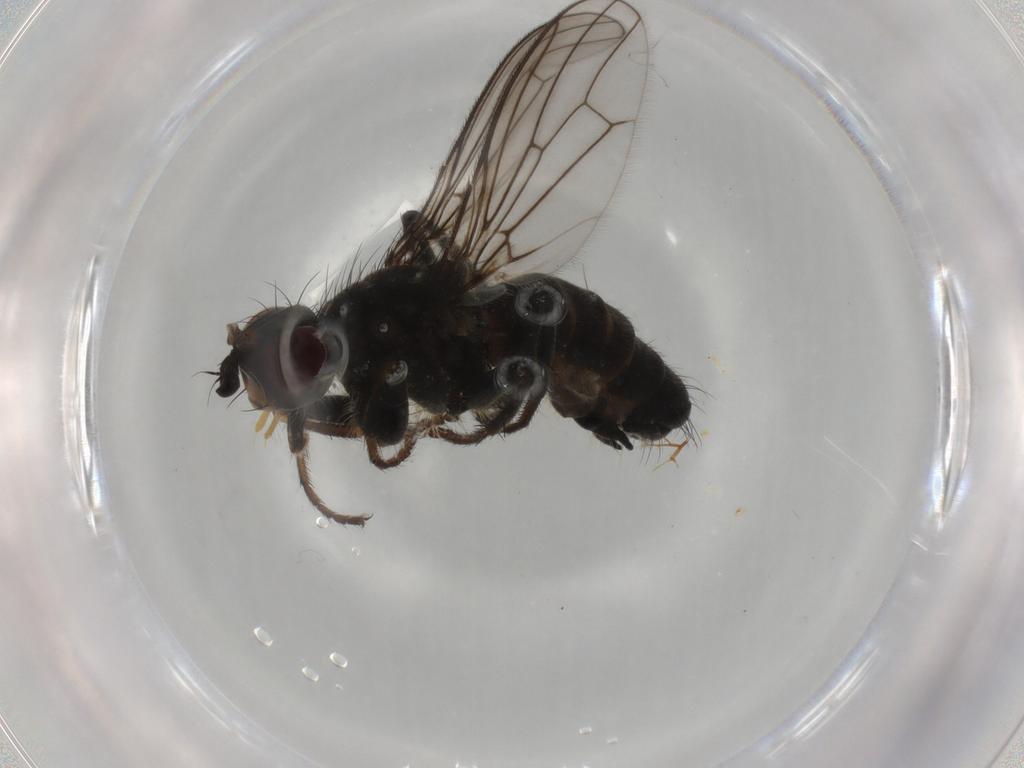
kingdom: Animalia
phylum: Arthropoda
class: Insecta
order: Diptera
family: Scathophagidae
